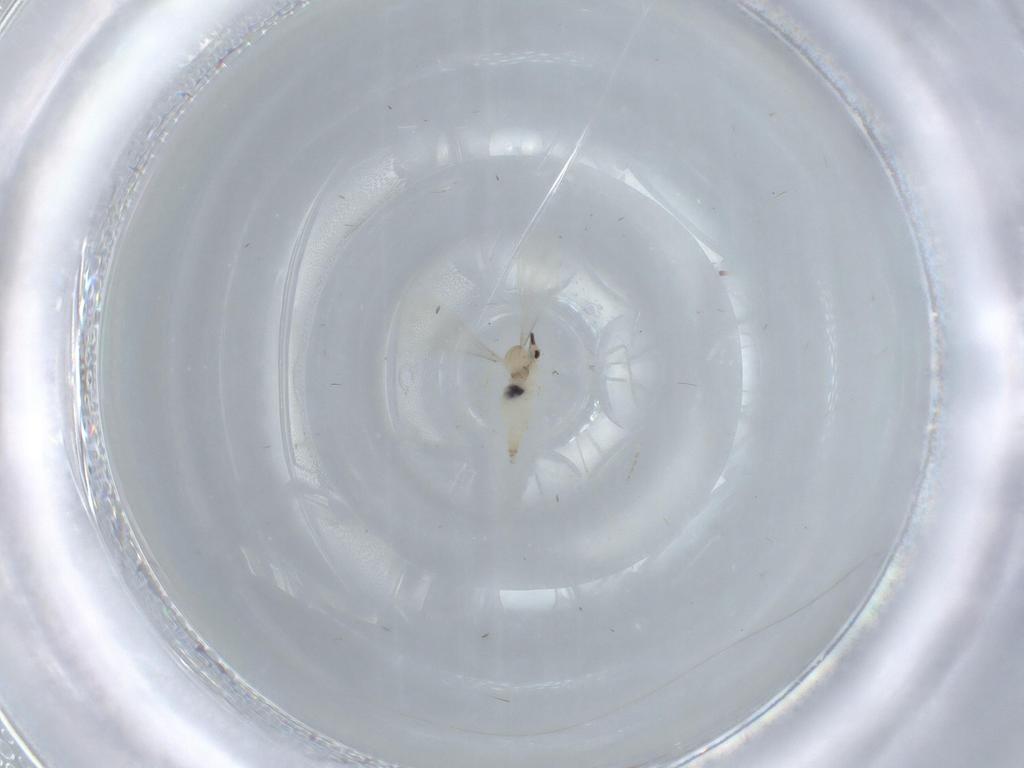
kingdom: Animalia
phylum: Arthropoda
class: Insecta
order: Diptera
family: Cecidomyiidae
